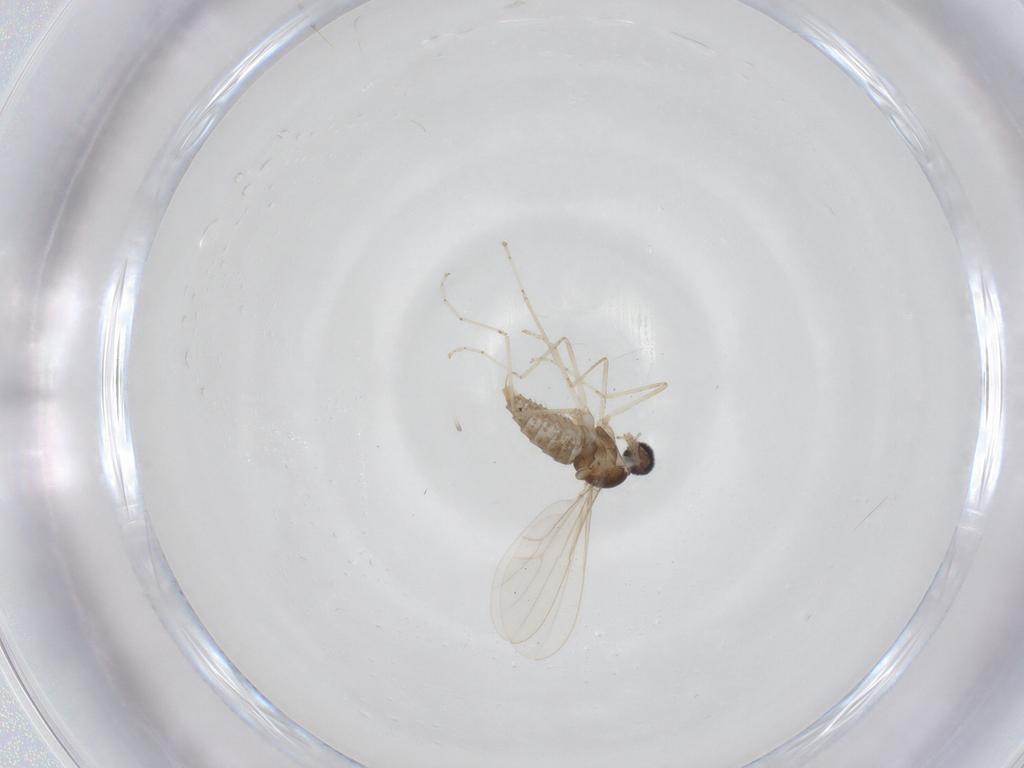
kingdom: Animalia
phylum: Arthropoda
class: Insecta
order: Diptera
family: Cecidomyiidae
